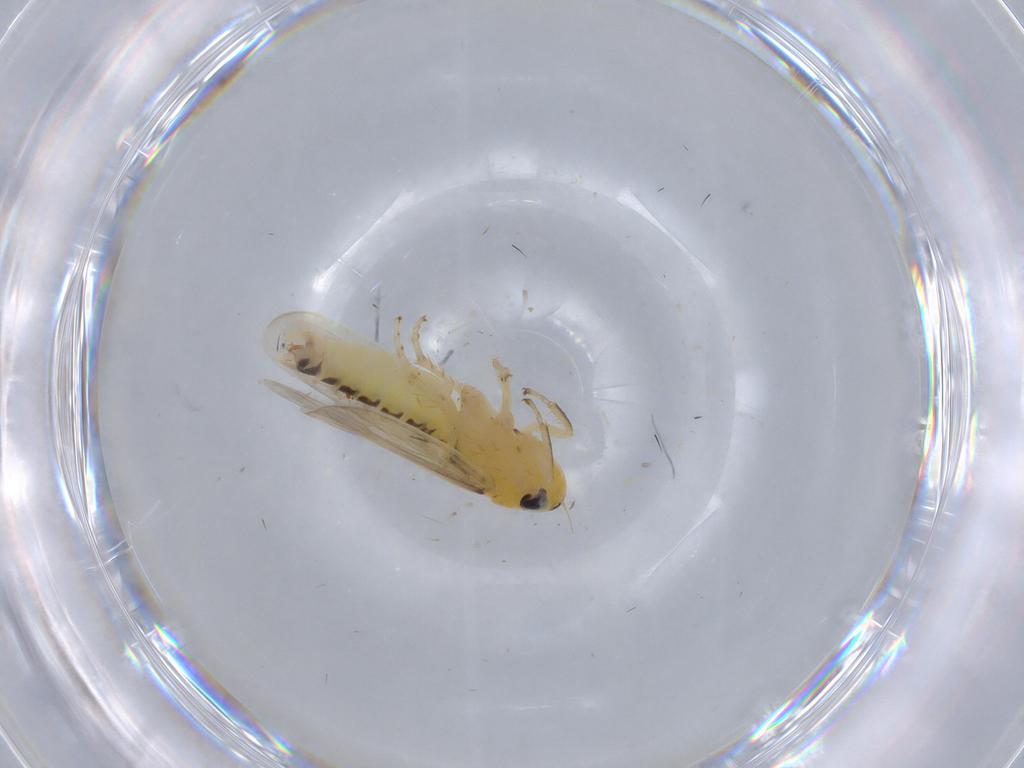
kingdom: Animalia
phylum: Arthropoda
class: Insecta
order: Hemiptera
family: Cicadellidae
